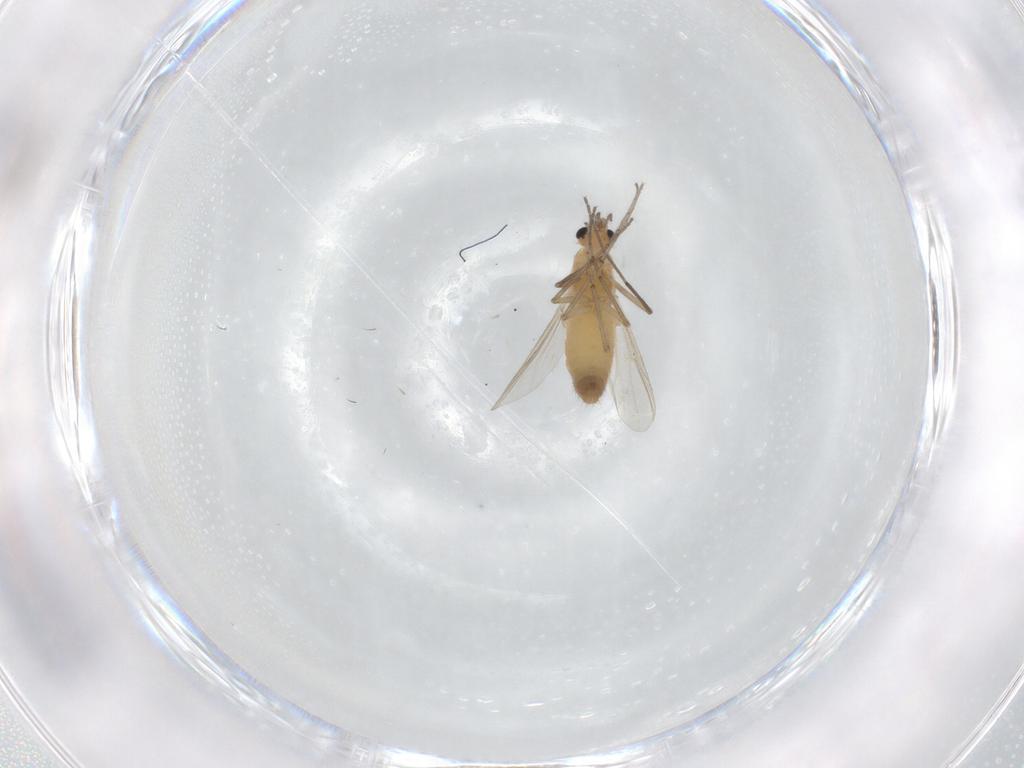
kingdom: Animalia
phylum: Arthropoda
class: Insecta
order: Diptera
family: Chironomidae
